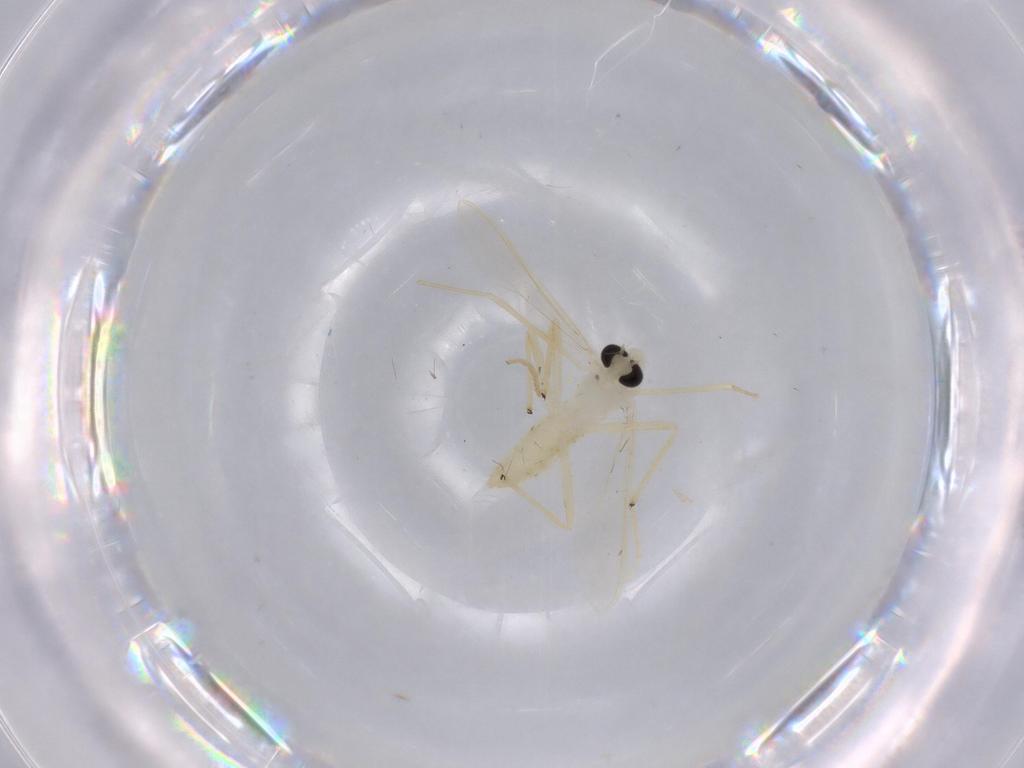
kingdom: Animalia
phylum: Arthropoda
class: Insecta
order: Diptera
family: Chironomidae
